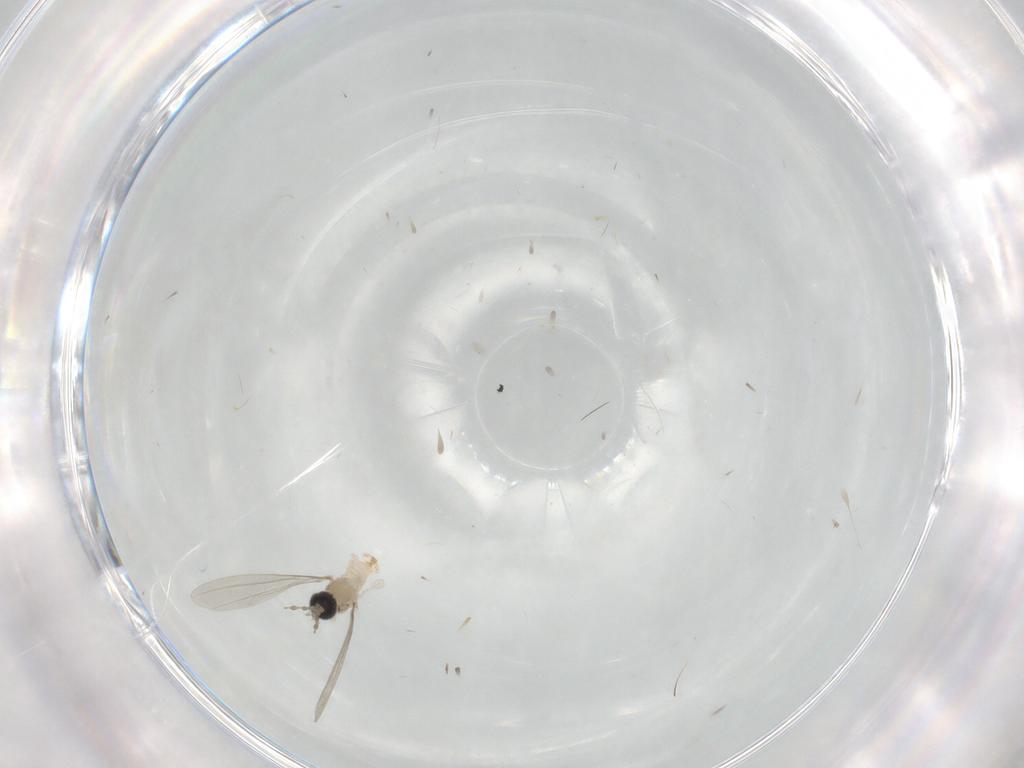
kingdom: Animalia
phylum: Arthropoda
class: Insecta
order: Diptera
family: Cecidomyiidae
